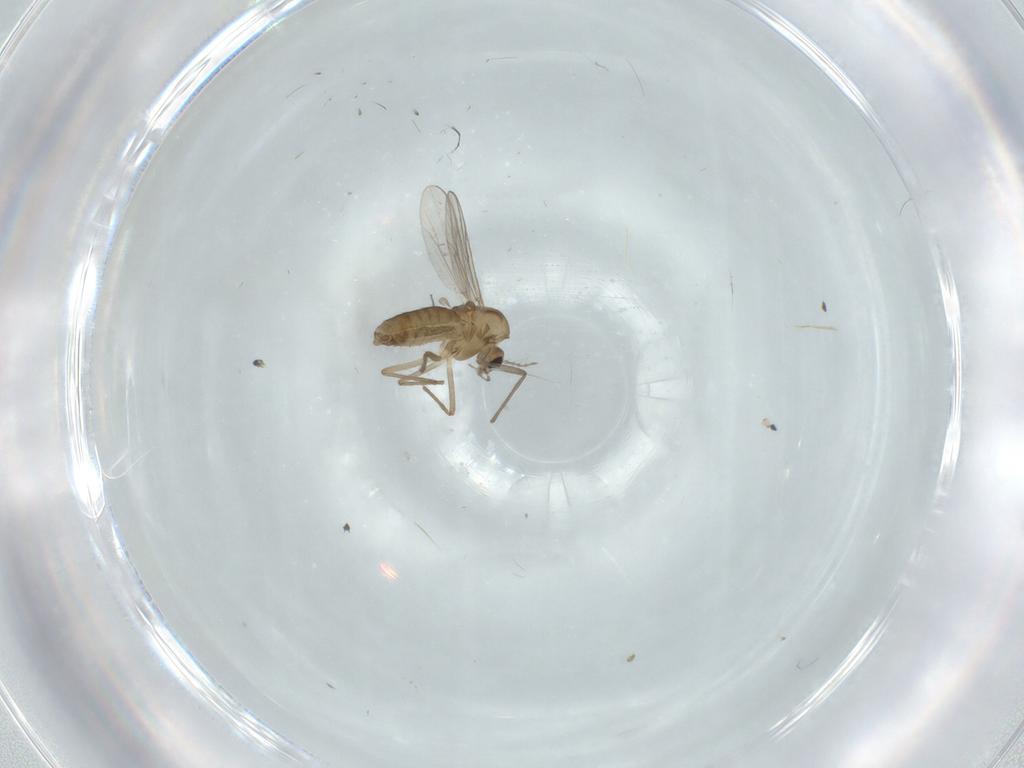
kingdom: Animalia
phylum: Arthropoda
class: Insecta
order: Diptera
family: Chironomidae
